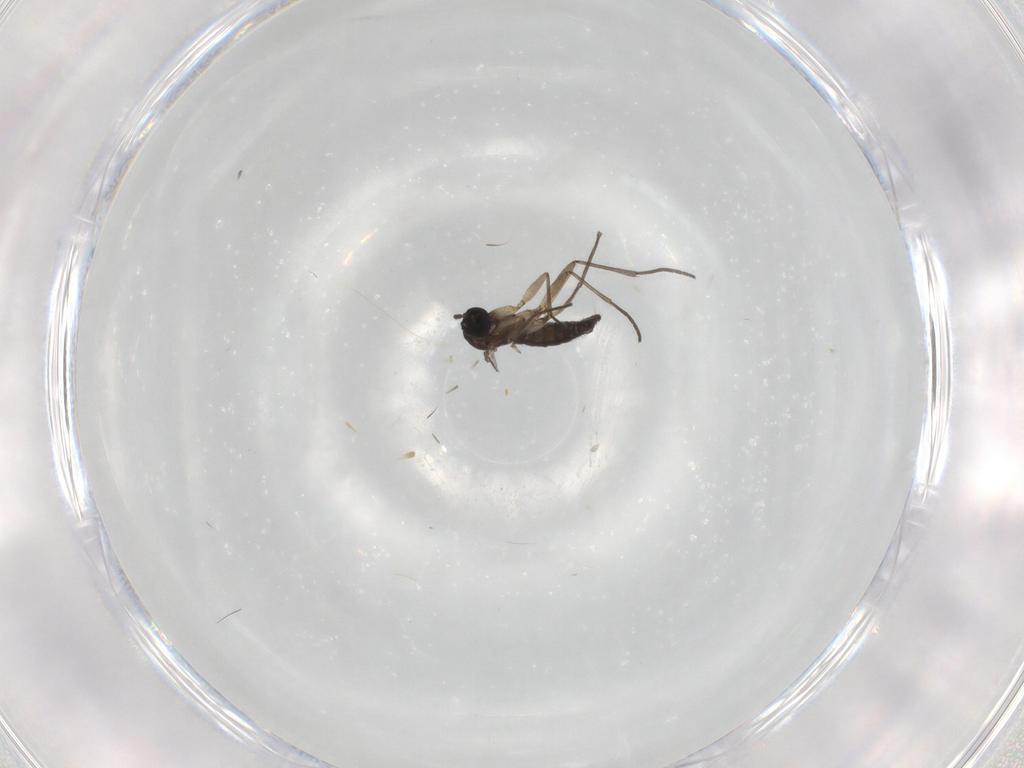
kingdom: Animalia
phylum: Arthropoda
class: Insecta
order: Diptera
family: Sciaridae
